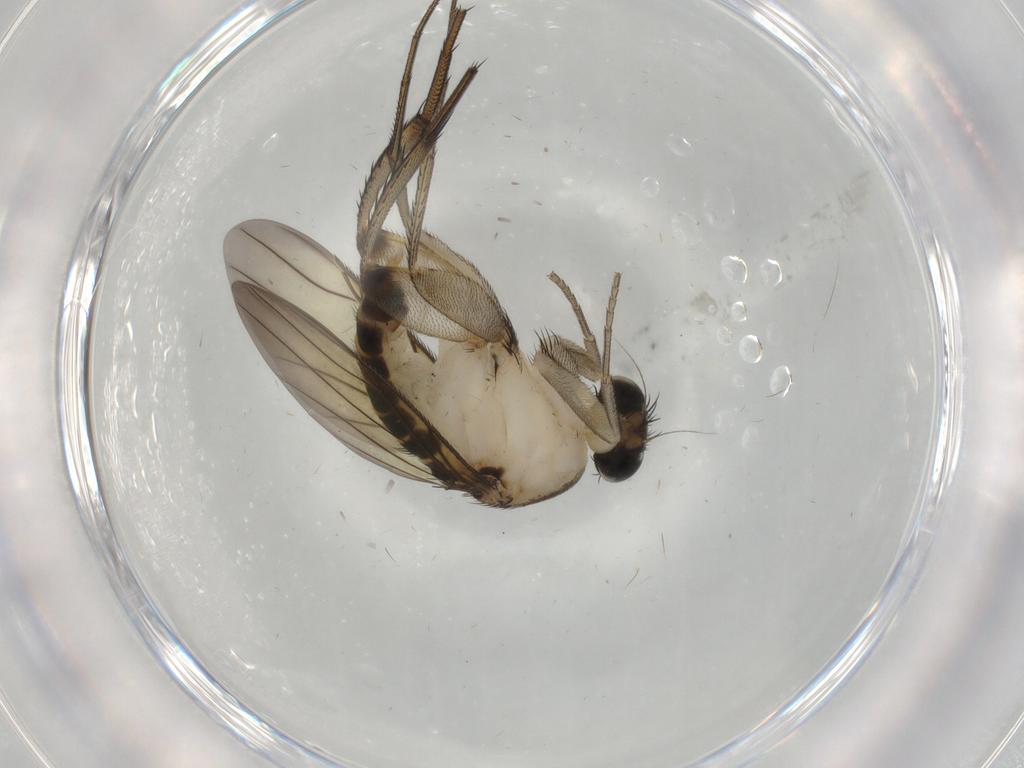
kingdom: Animalia
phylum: Arthropoda
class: Insecta
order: Diptera
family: Phoridae
